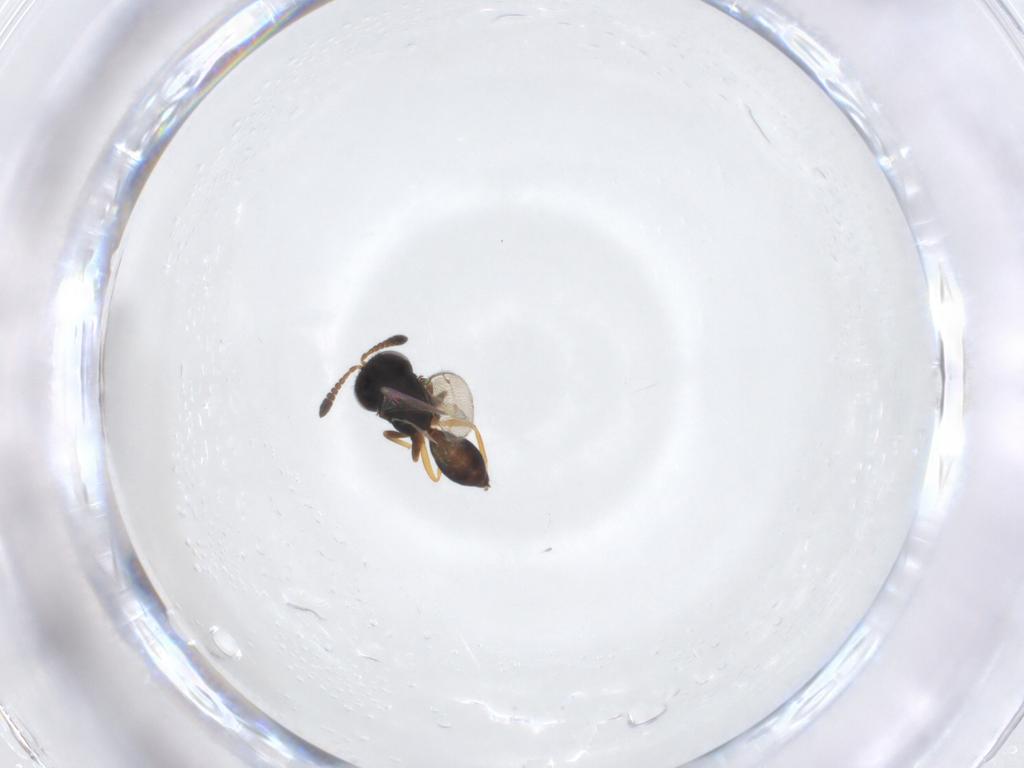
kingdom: Animalia
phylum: Arthropoda
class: Insecta
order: Hymenoptera
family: Pteromalidae
